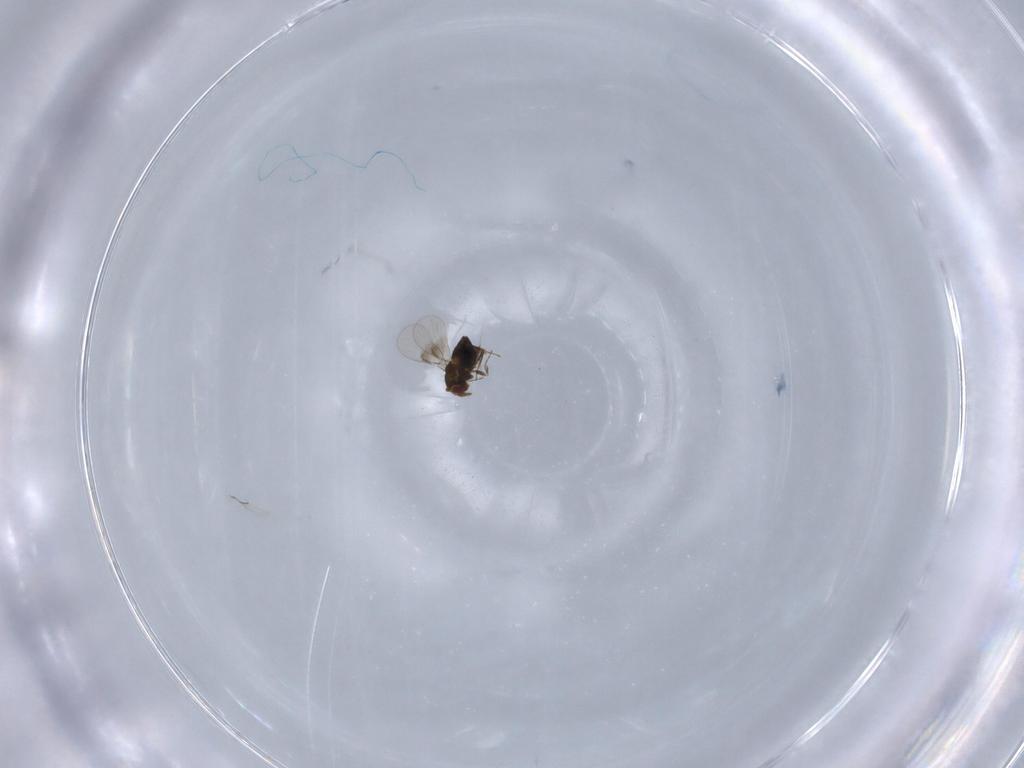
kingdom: Animalia
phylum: Arthropoda
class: Insecta
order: Hymenoptera
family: Trichogrammatidae
